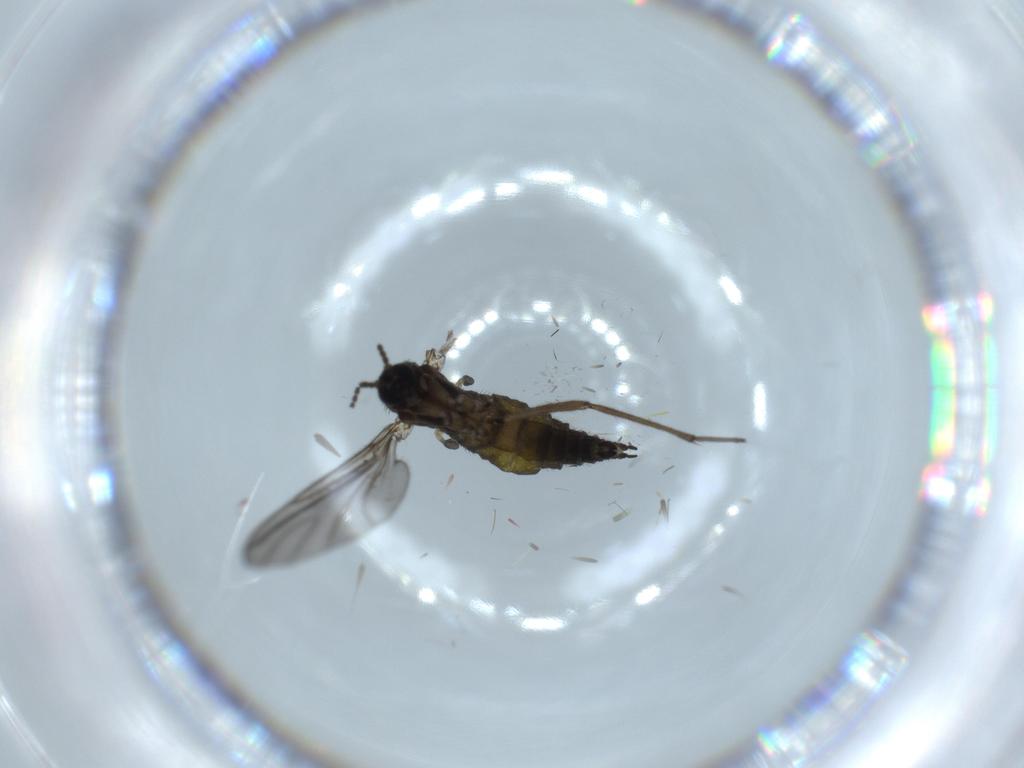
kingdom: Animalia
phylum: Arthropoda
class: Insecta
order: Diptera
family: Sciaridae
